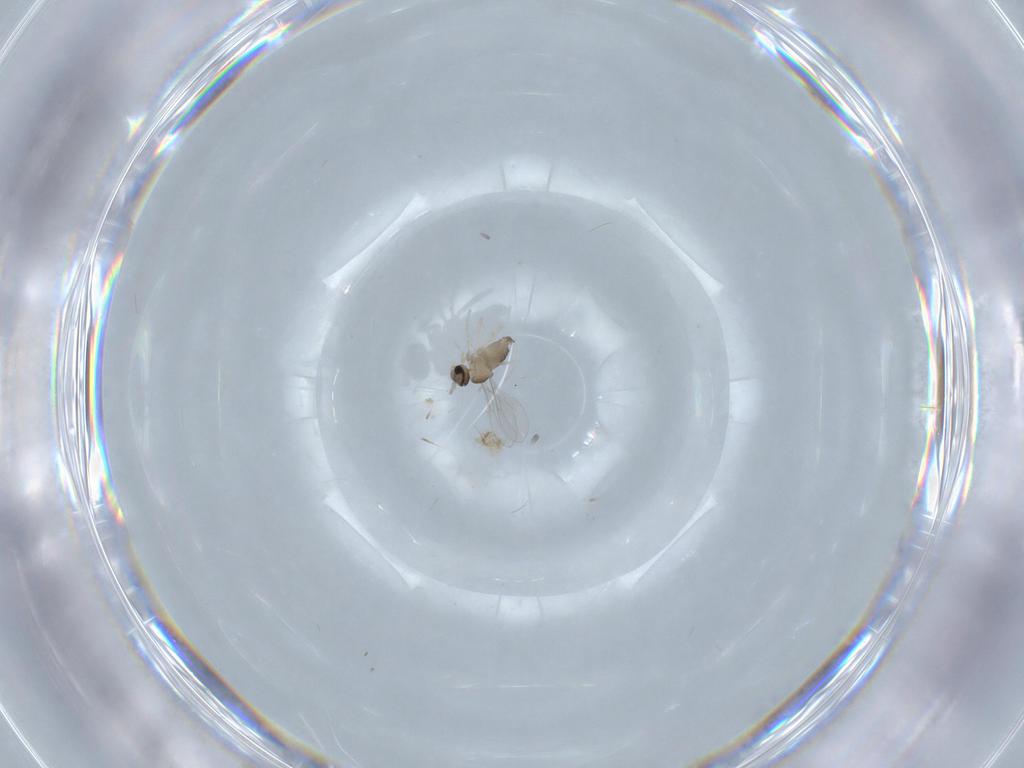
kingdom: Animalia
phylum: Arthropoda
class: Insecta
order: Diptera
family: Cecidomyiidae
